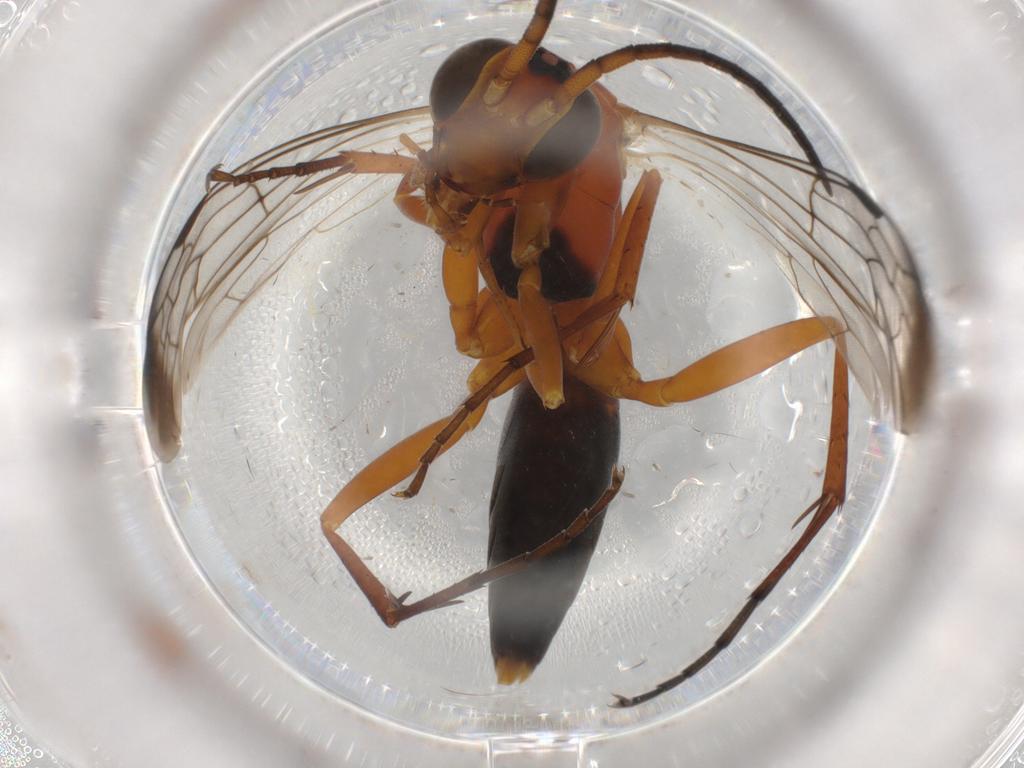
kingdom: Animalia
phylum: Arthropoda
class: Insecta
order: Hymenoptera
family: Pompilidae
